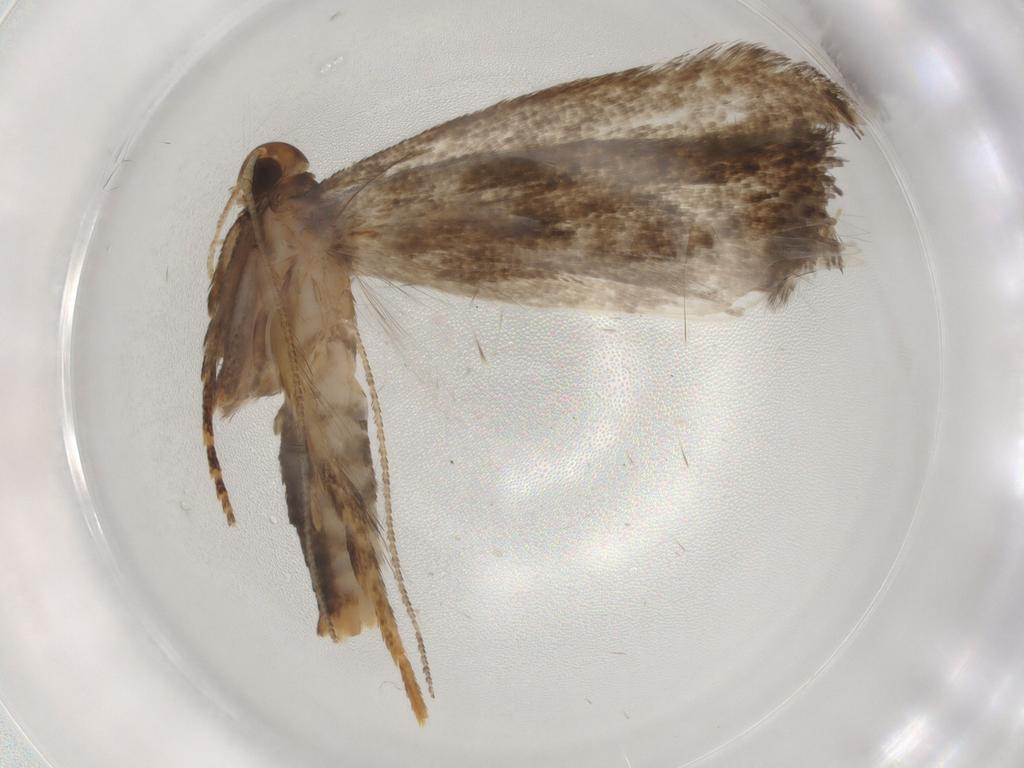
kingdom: Animalia
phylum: Arthropoda
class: Insecta
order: Lepidoptera
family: Gelechiidae
